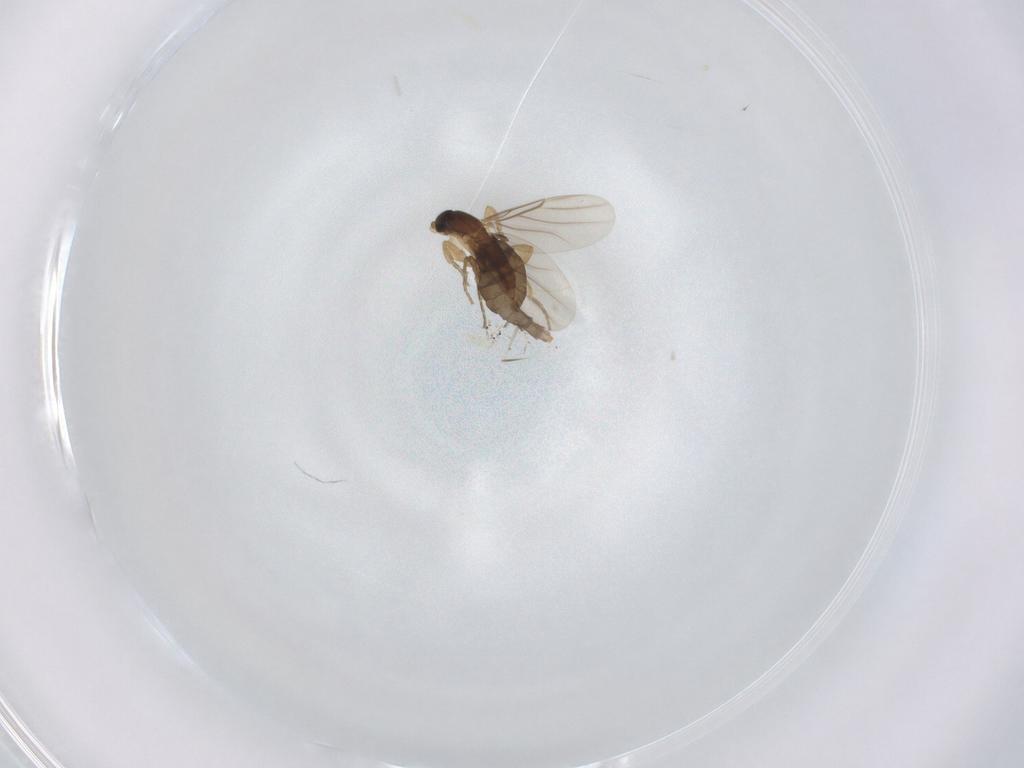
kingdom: Animalia
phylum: Arthropoda
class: Insecta
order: Diptera
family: Phoridae
